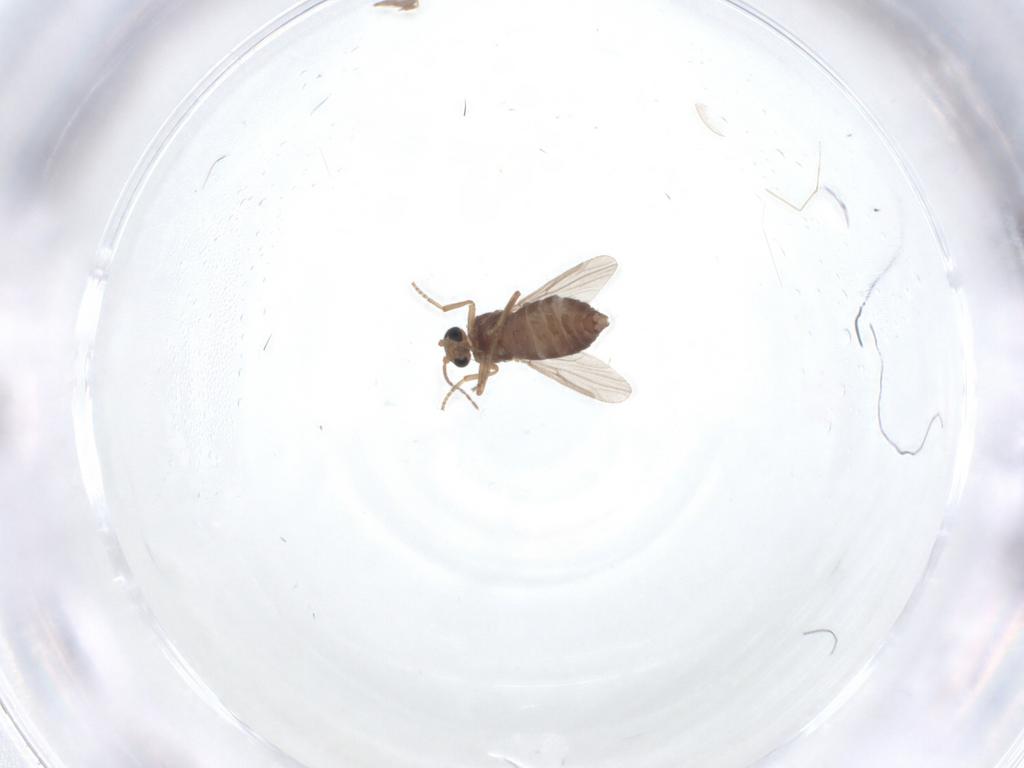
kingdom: Animalia
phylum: Arthropoda
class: Insecta
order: Diptera
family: Ceratopogonidae
